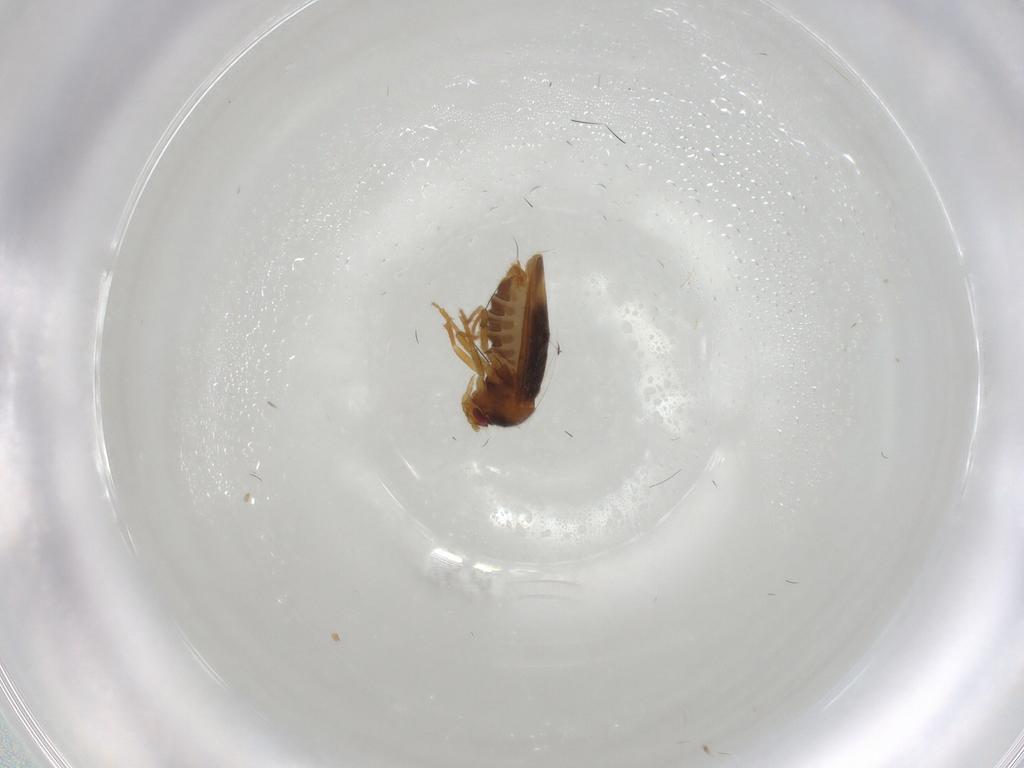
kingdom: Animalia
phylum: Arthropoda
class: Insecta
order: Hemiptera
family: Schizopteridae
